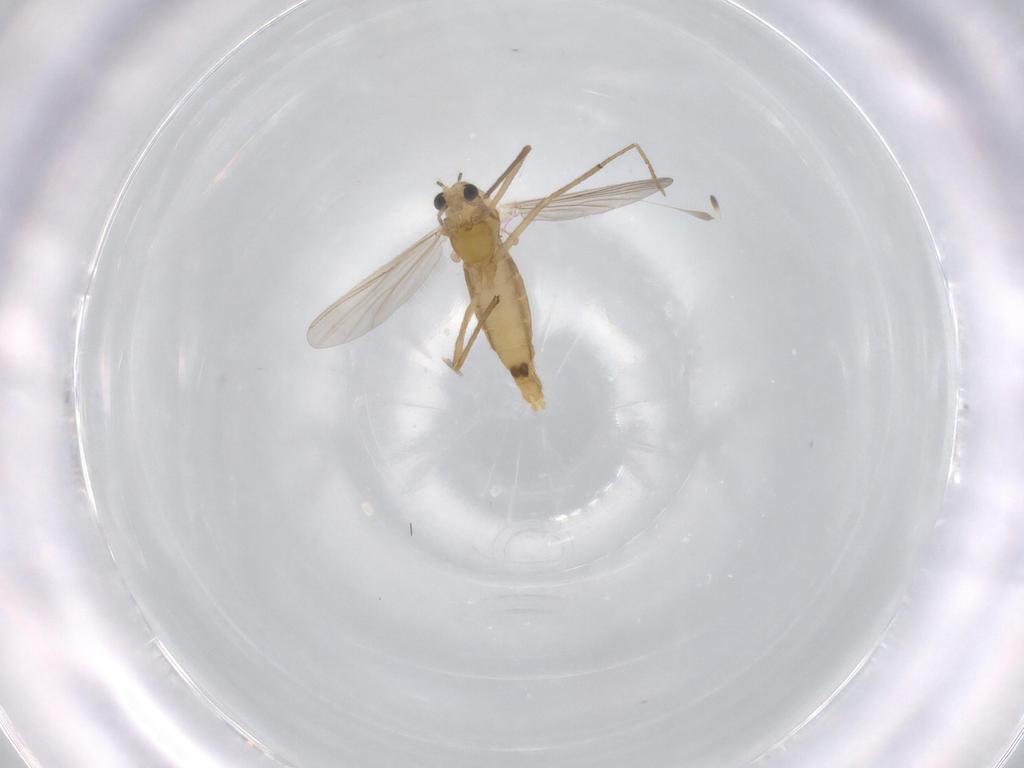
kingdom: Animalia
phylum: Arthropoda
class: Insecta
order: Diptera
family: Chironomidae
